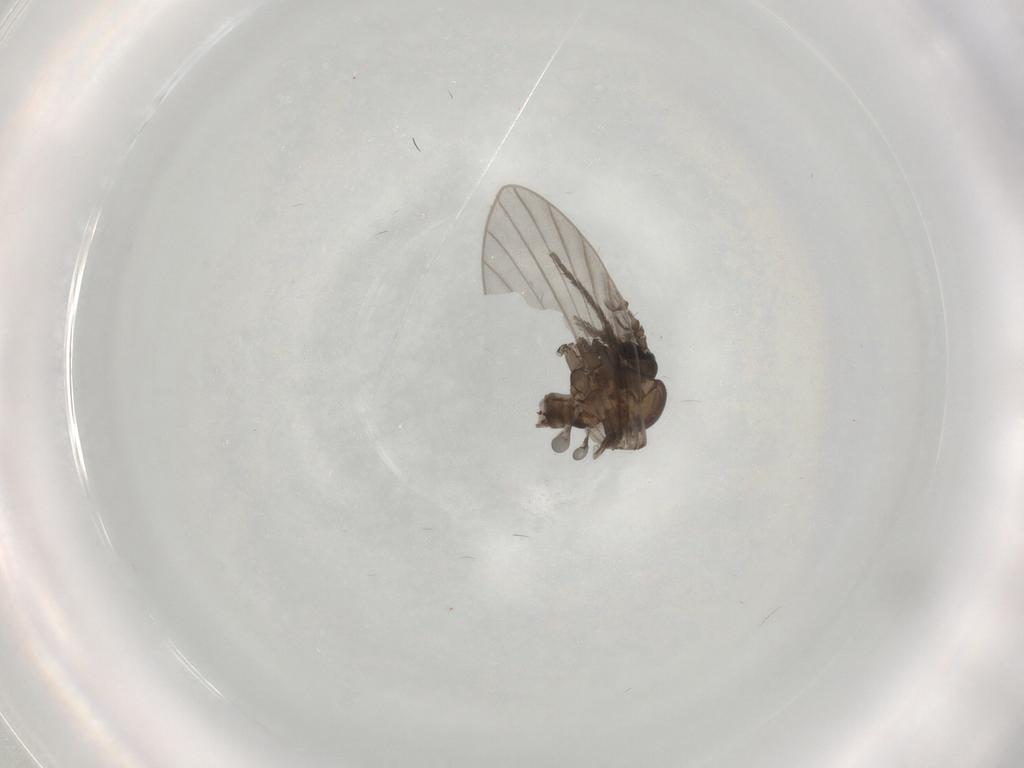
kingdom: Animalia
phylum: Arthropoda
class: Insecta
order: Diptera
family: Psychodidae
